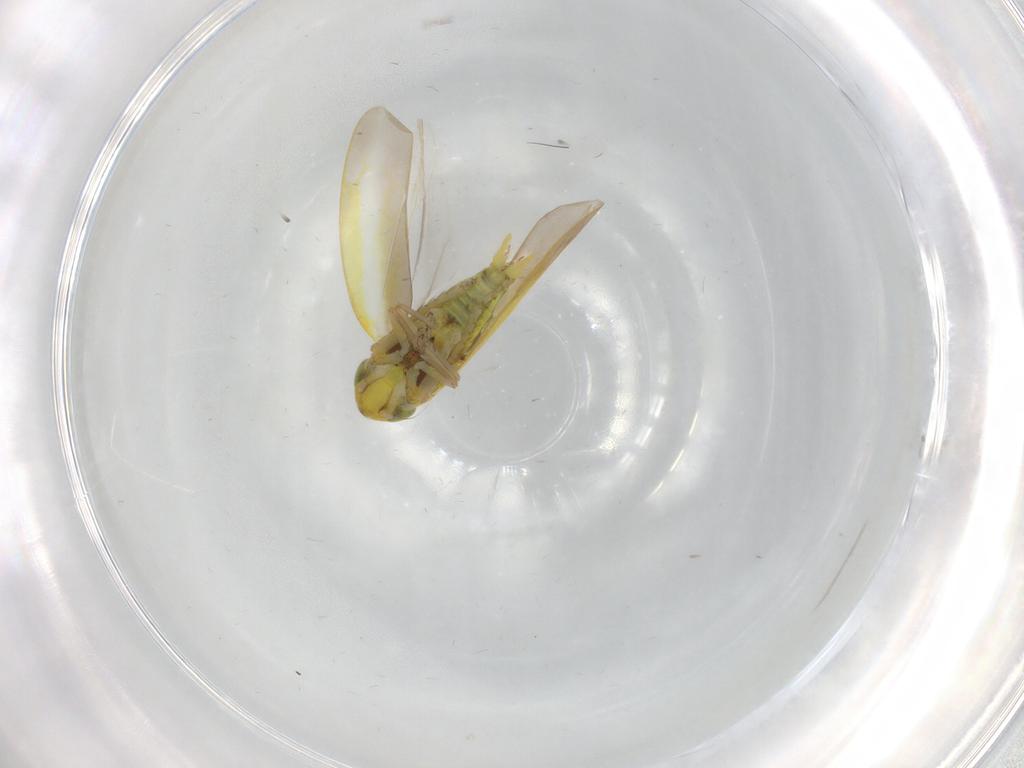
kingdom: Animalia
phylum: Arthropoda
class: Insecta
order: Hemiptera
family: Cicadellidae
